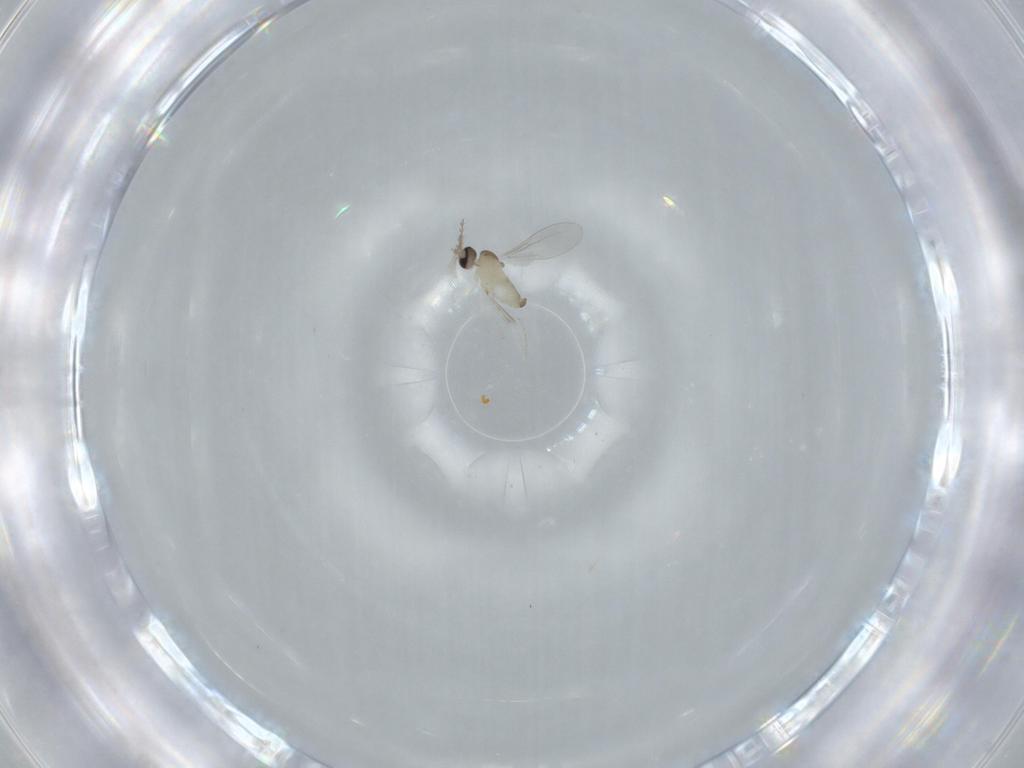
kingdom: Animalia
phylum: Arthropoda
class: Insecta
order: Diptera
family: Cecidomyiidae
